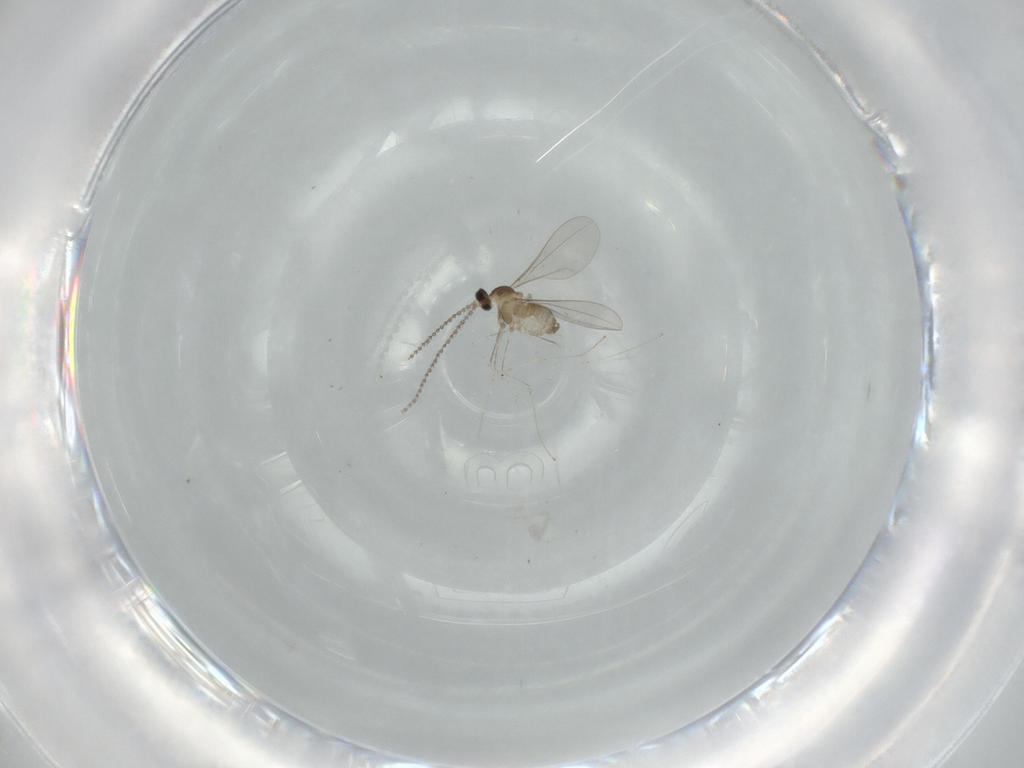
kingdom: Animalia
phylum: Arthropoda
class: Insecta
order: Diptera
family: Cecidomyiidae
